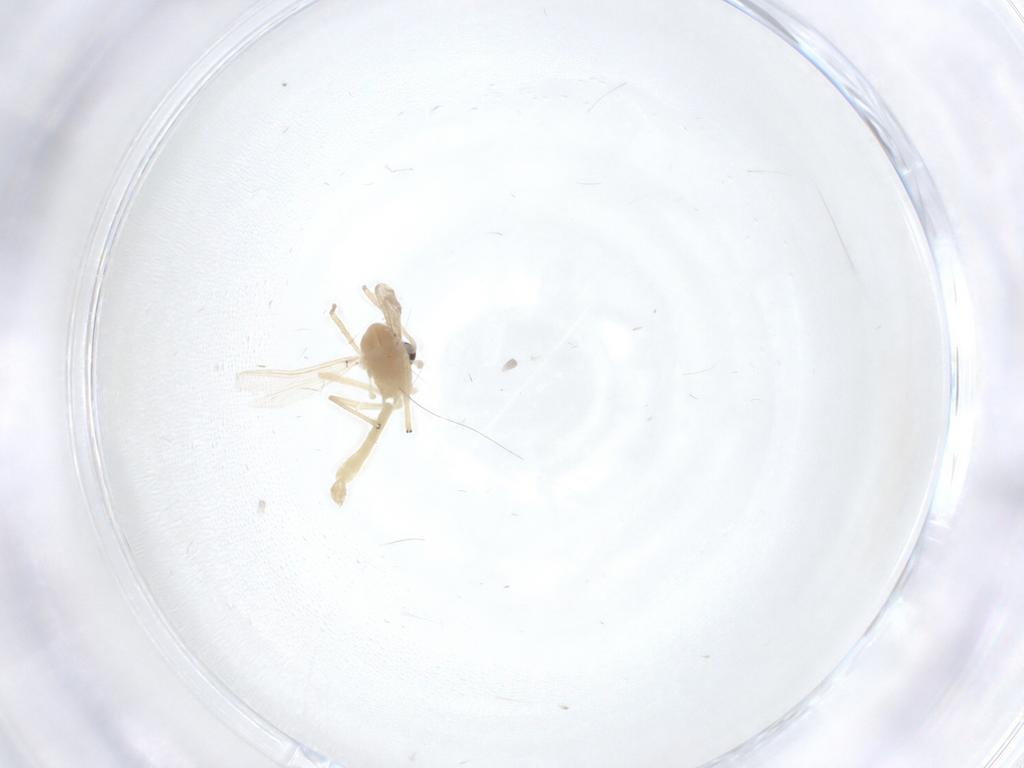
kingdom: Animalia
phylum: Arthropoda
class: Insecta
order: Diptera
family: Chironomidae
